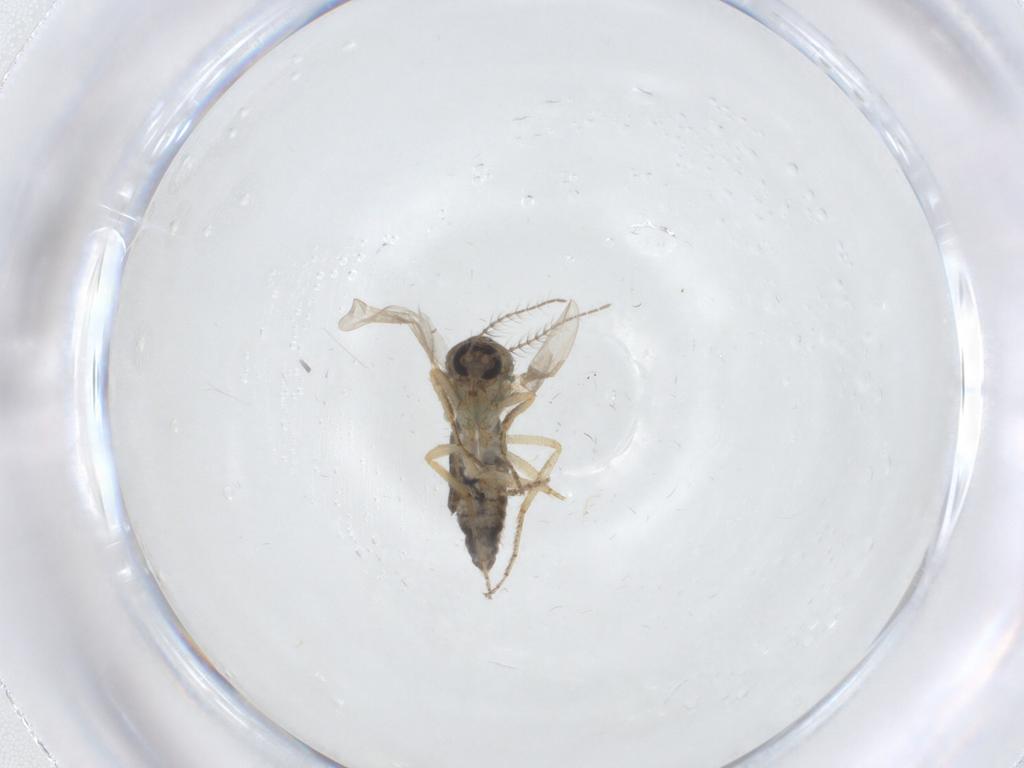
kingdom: Animalia
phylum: Arthropoda
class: Insecta
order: Diptera
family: Ceratopogonidae
